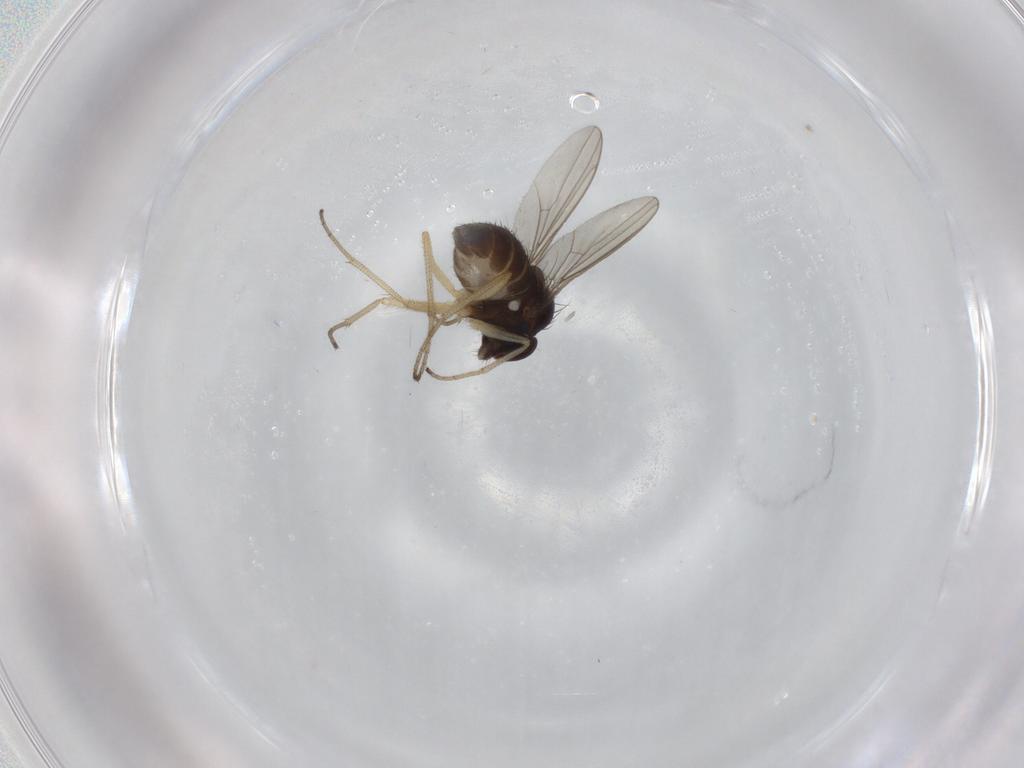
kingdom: Animalia
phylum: Arthropoda
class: Insecta
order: Diptera
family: Dolichopodidae
